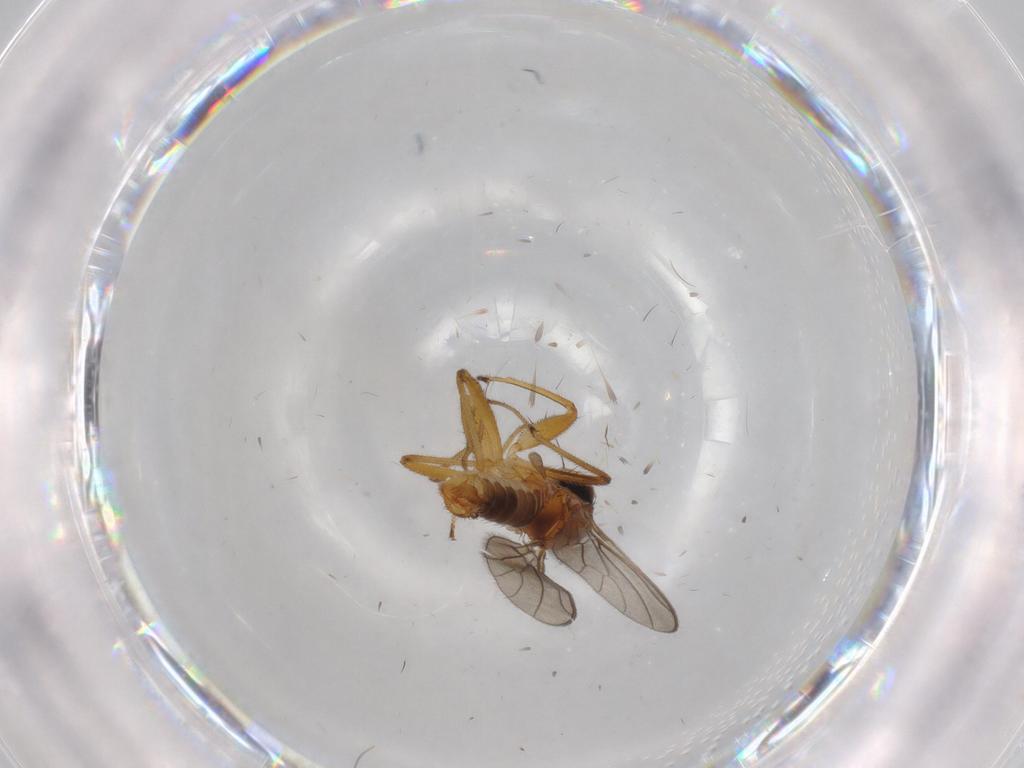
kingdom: Animalia
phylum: Arthropoda
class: Insecta
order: Diptera
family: Empididae
